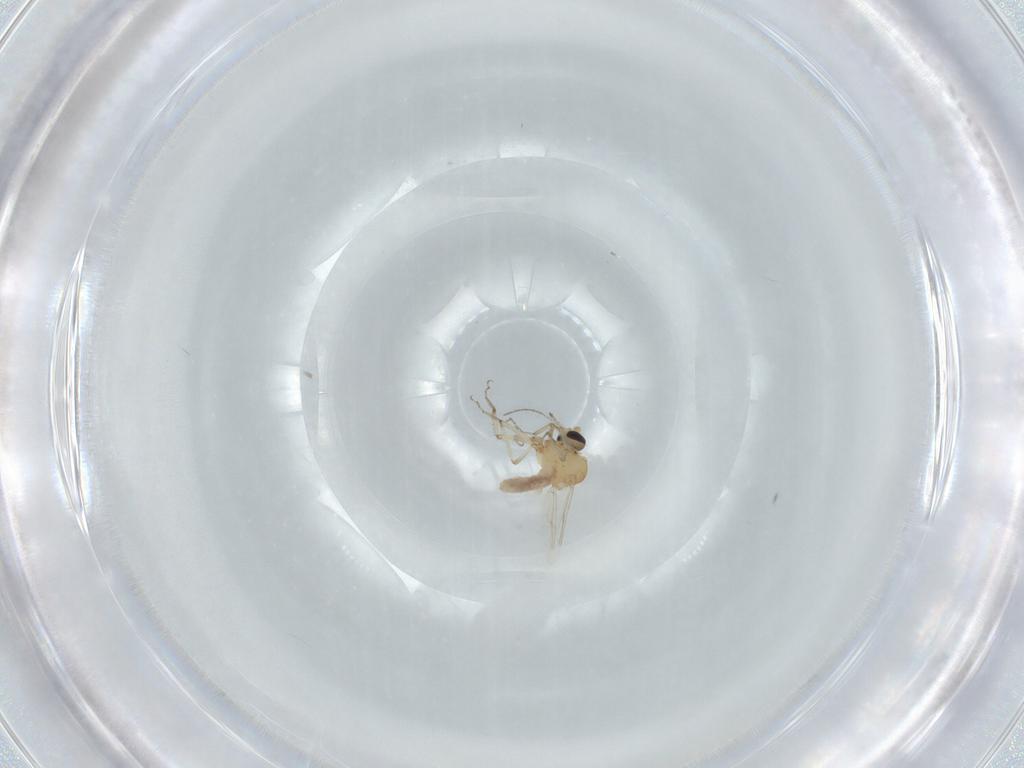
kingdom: Animalia
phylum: Arthropoda
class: Insecta
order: Diptera
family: Ceratopogonidae
